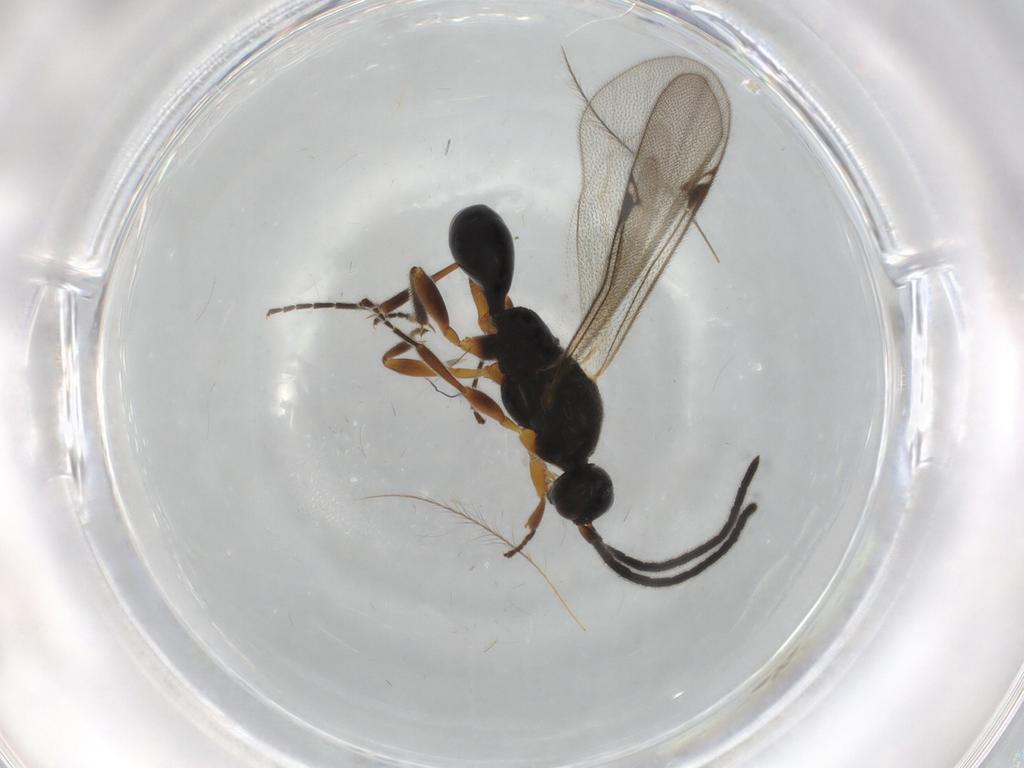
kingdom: Animalia
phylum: Arthropoda
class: Insecta
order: Hymenoptera
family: Proctotrupidae
